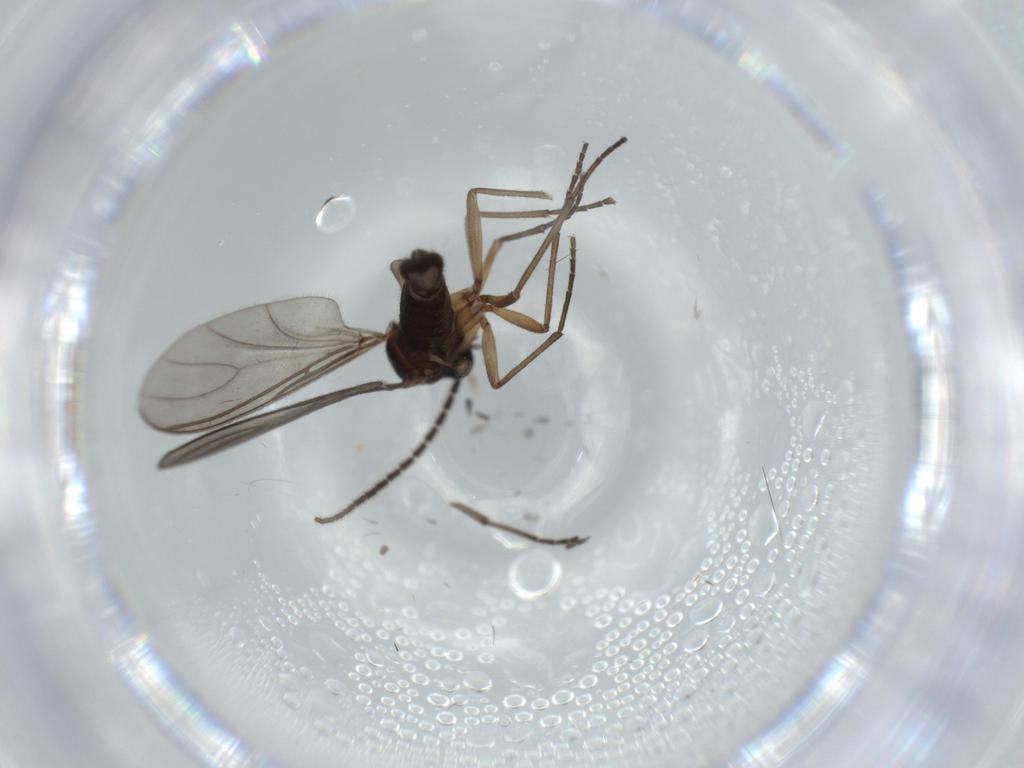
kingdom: Animalia
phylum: Arthropoda
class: Insecta
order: Diptera
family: Sciaridae
